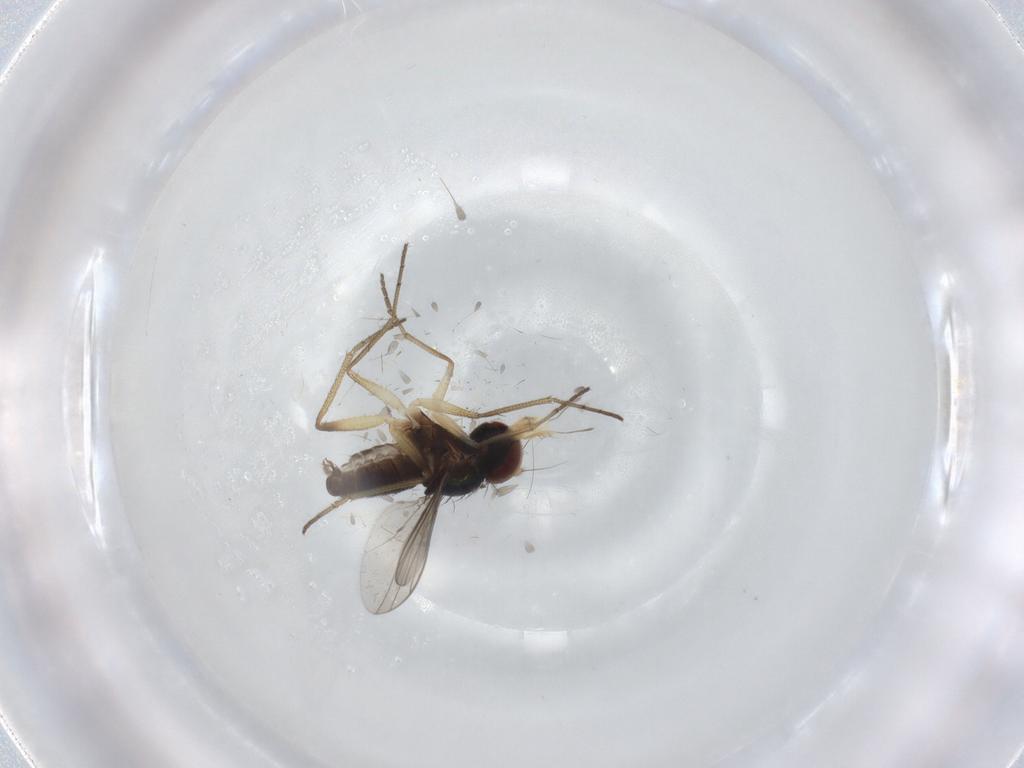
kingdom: Animalia
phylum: Arthropoda
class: Insecta
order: Diptera
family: Dolichopodidae
